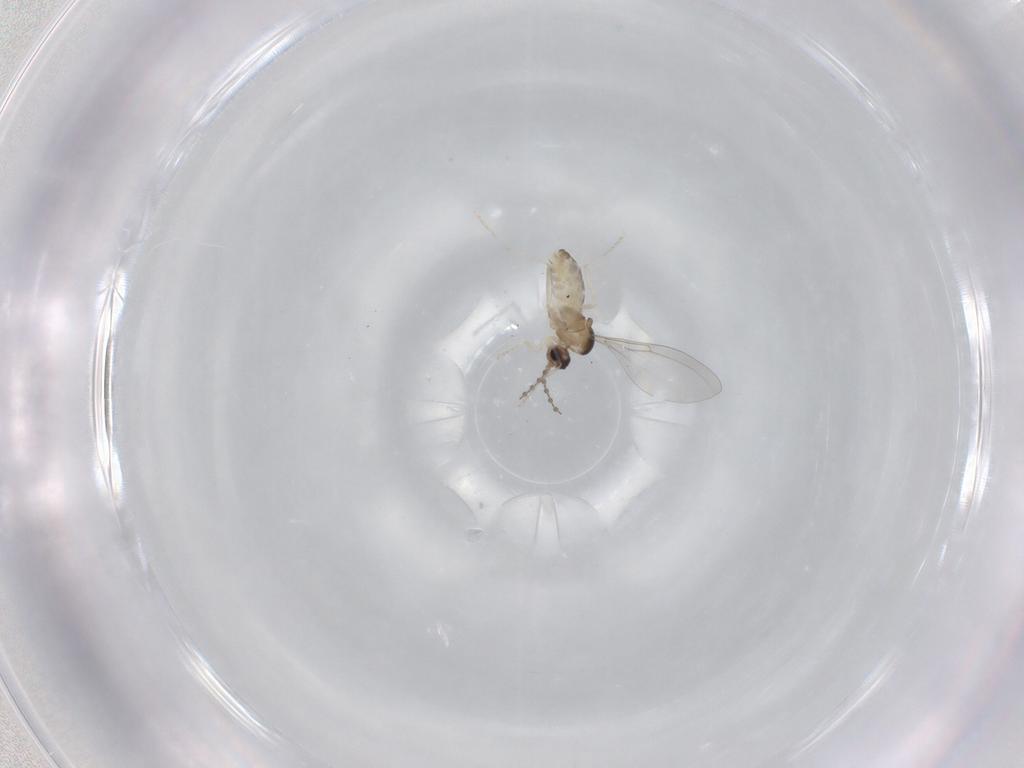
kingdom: Animalia
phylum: Arthropoda
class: Insecta
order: Diptera
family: Cecidomyiidae
